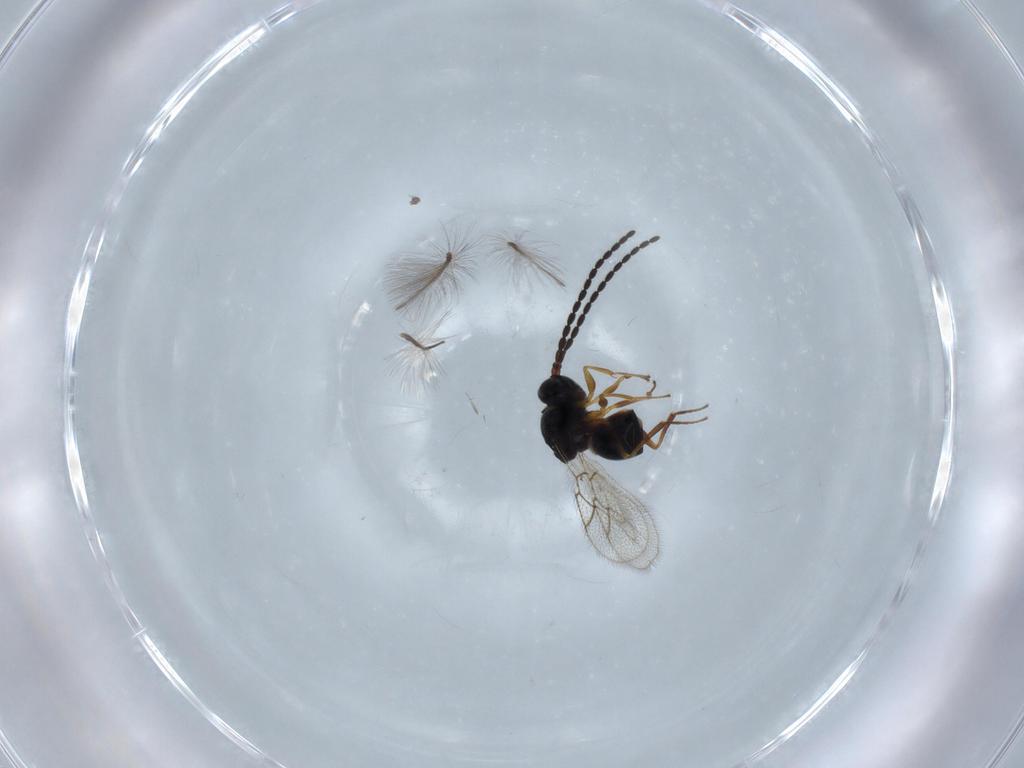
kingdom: Animalia
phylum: Arthropoda
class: Insecta
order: Hymenoptera
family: Figitidae
